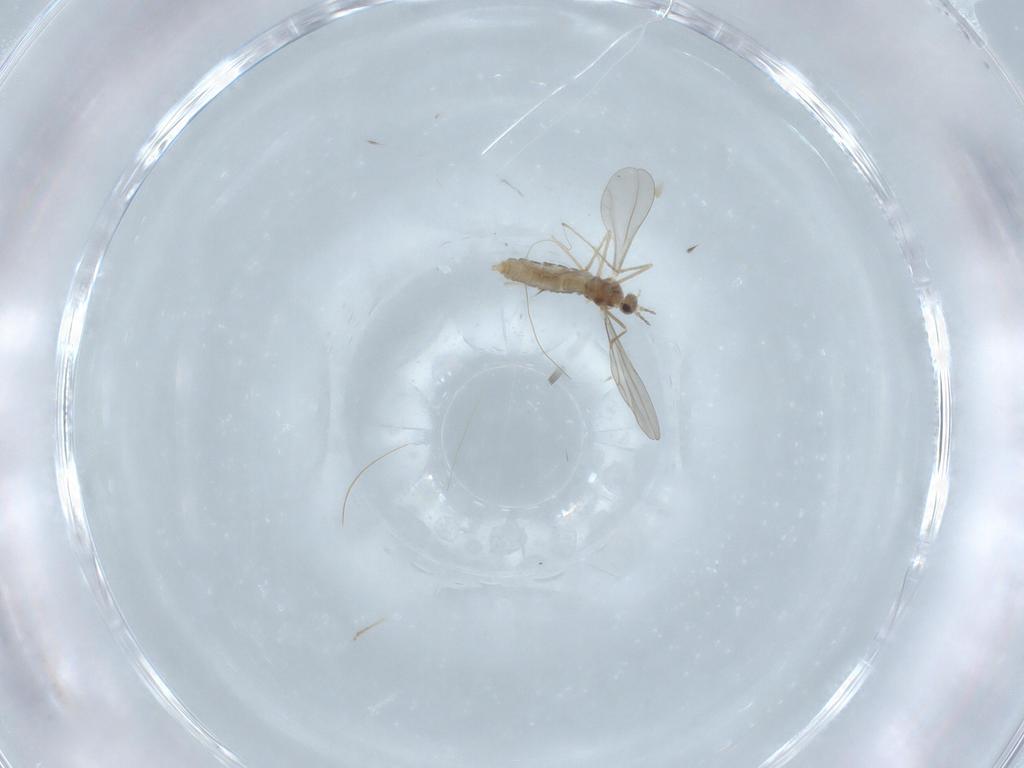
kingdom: Animalia
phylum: Arthropoda
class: Insecta
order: Diptera
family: Cecidomyiidae
